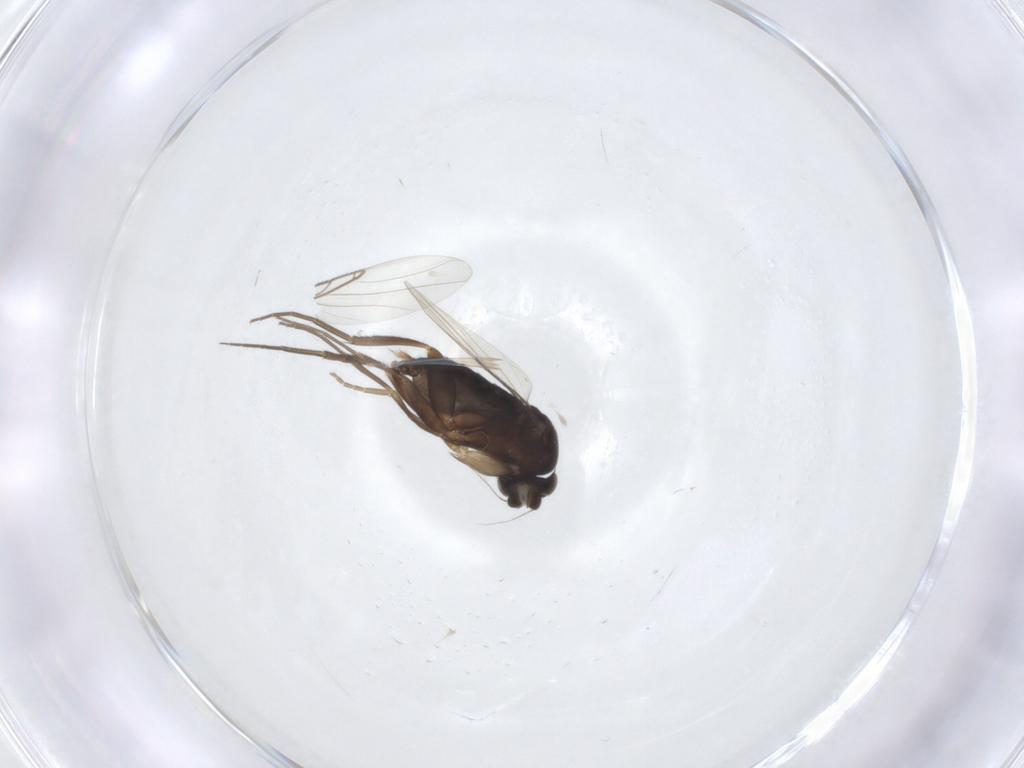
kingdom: Animalia
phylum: Arthropoda
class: Insecta
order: Diptera
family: Phoridae
